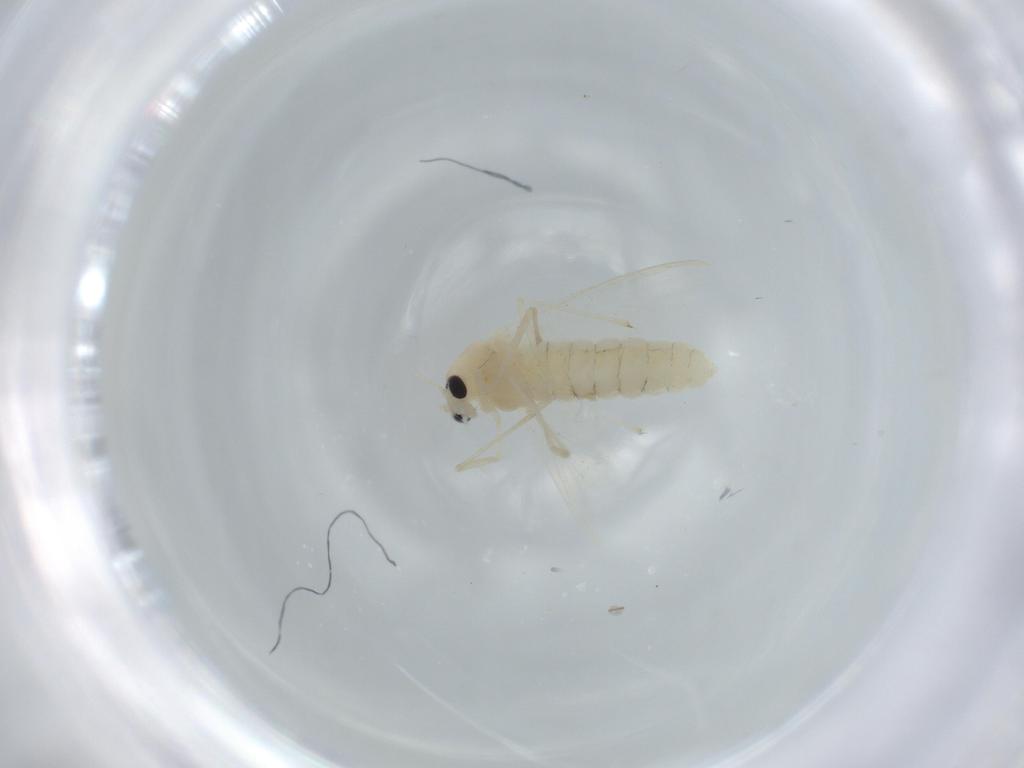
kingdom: Animalia
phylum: Arthropoda
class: Insecta
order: Diptera
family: Chironomidae
